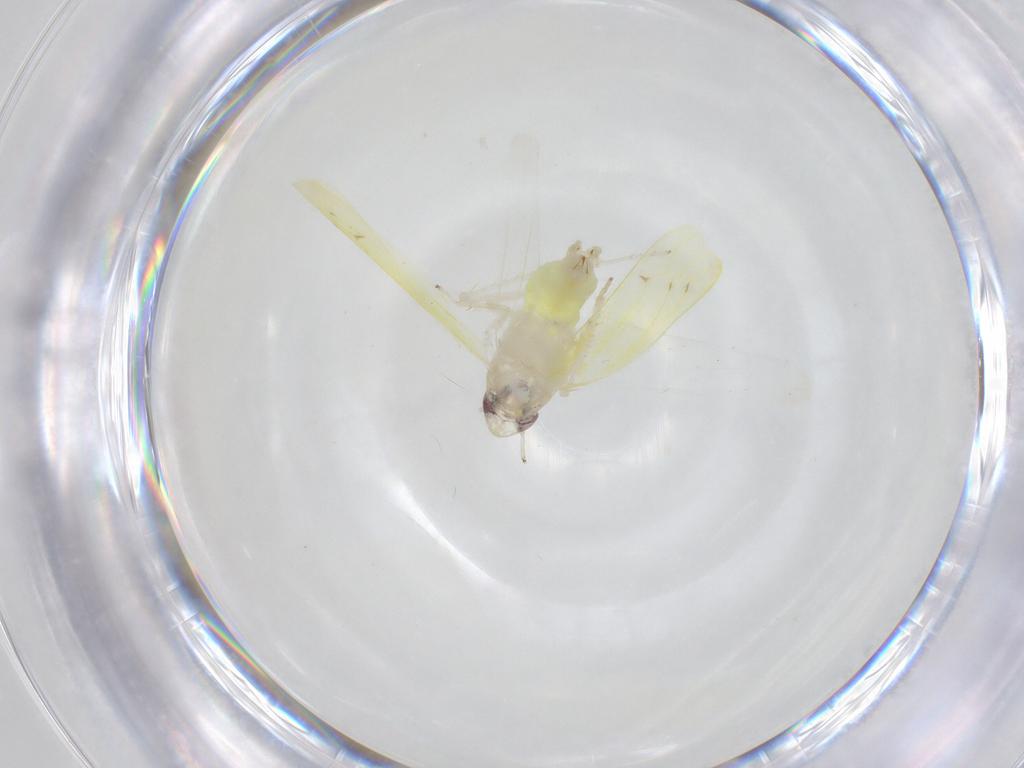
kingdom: Animalia
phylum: Arthropoda
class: Insecta
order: Hemiptera
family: Cicadellidae
